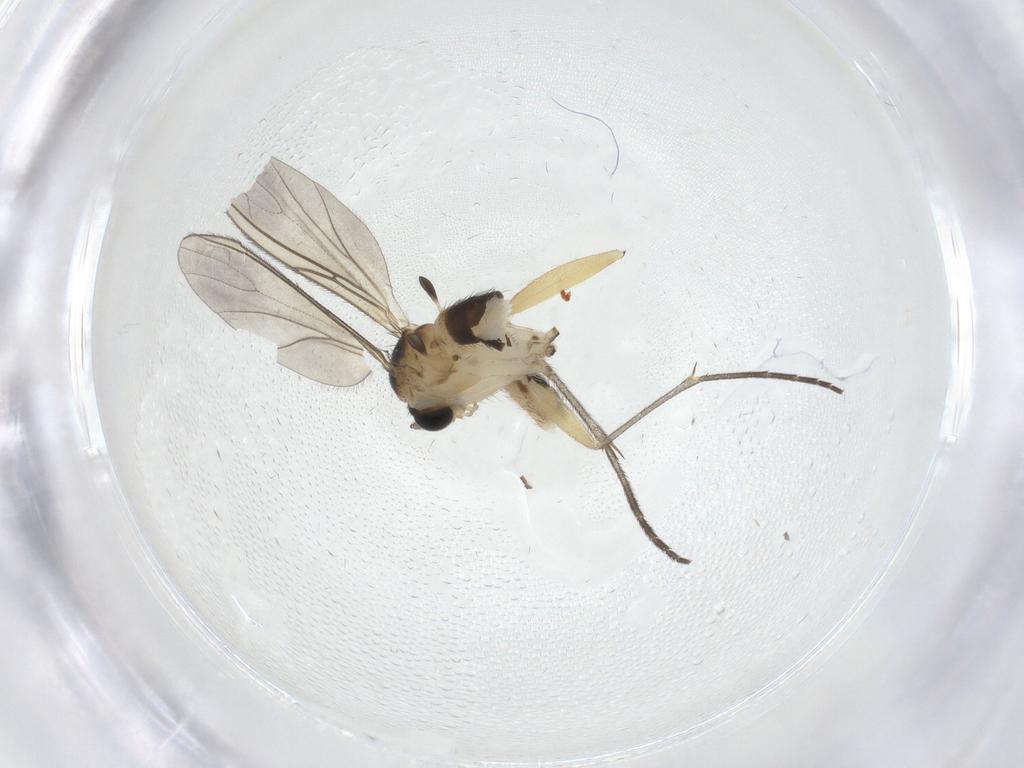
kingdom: Animalia
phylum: Arthropoda
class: Insecta
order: Diptera
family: Sciaridae
